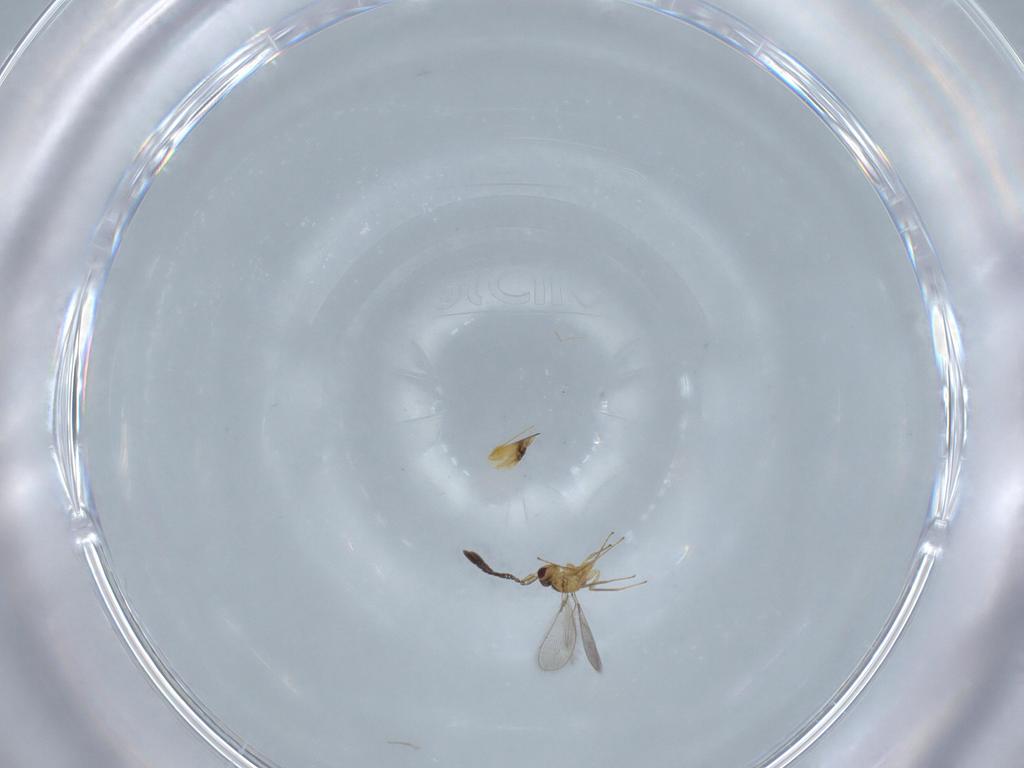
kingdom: Animalia
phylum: Arthropoda
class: Insecta
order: Hymenoptera
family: Mymaridae
